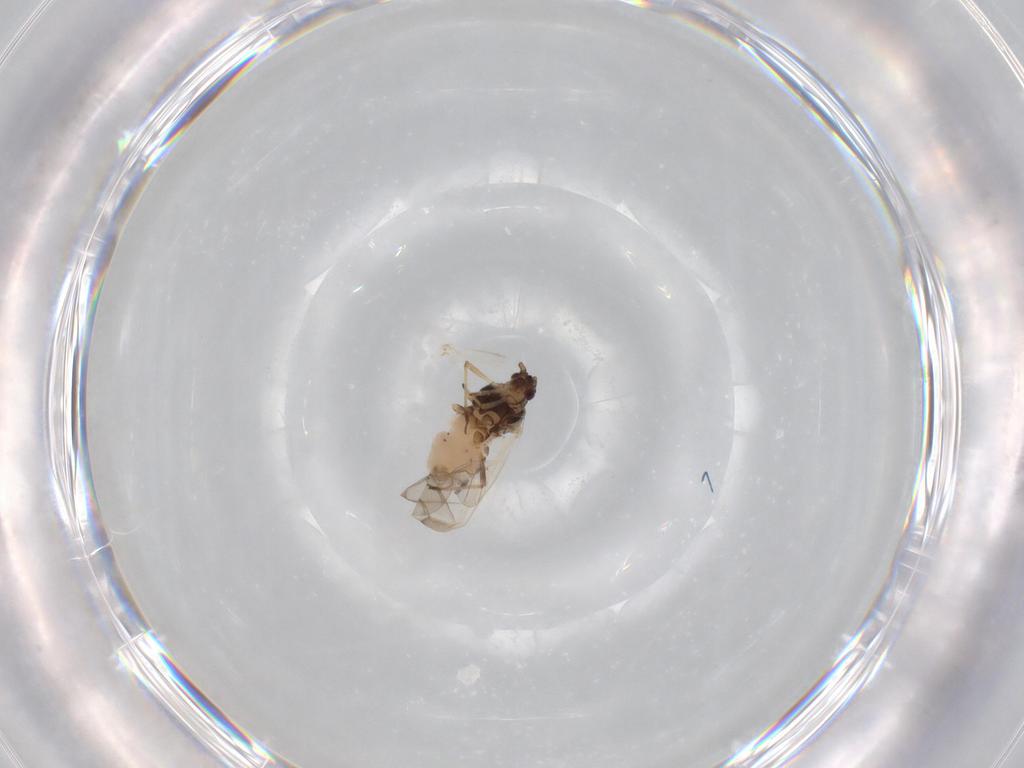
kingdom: Animalia
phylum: Arthropoda
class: Insecta
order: Hemiptera
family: Aphididae
